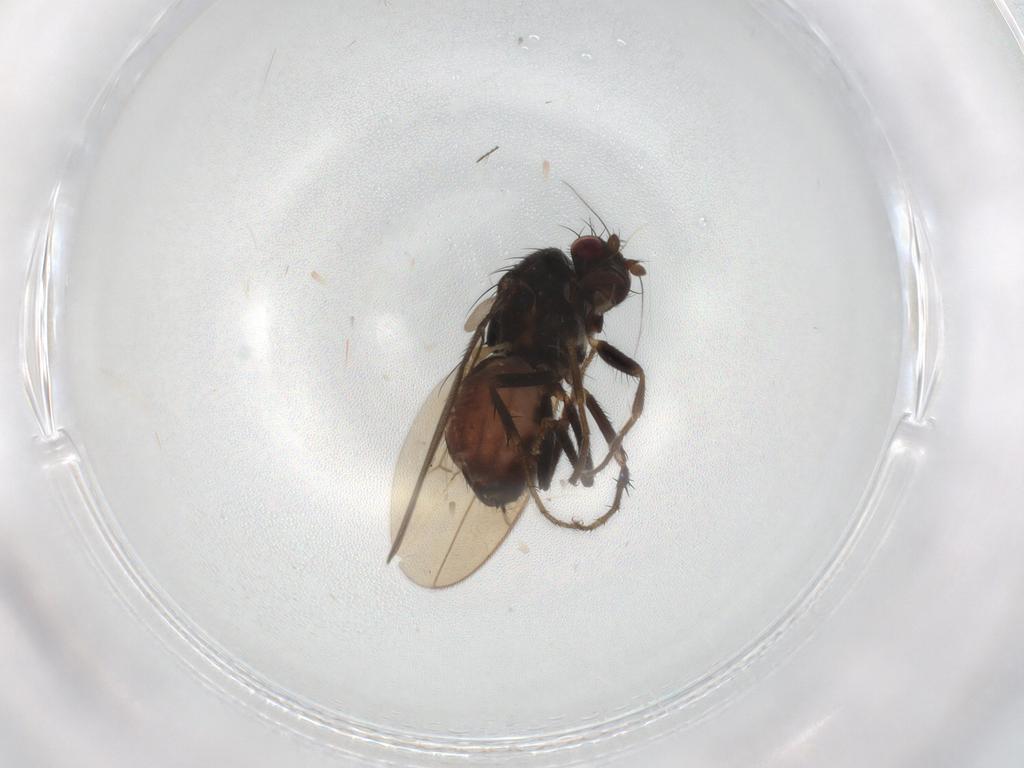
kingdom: Animalia
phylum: Arthropoda
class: Insecta
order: Diptera
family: Sphaeroceridae
